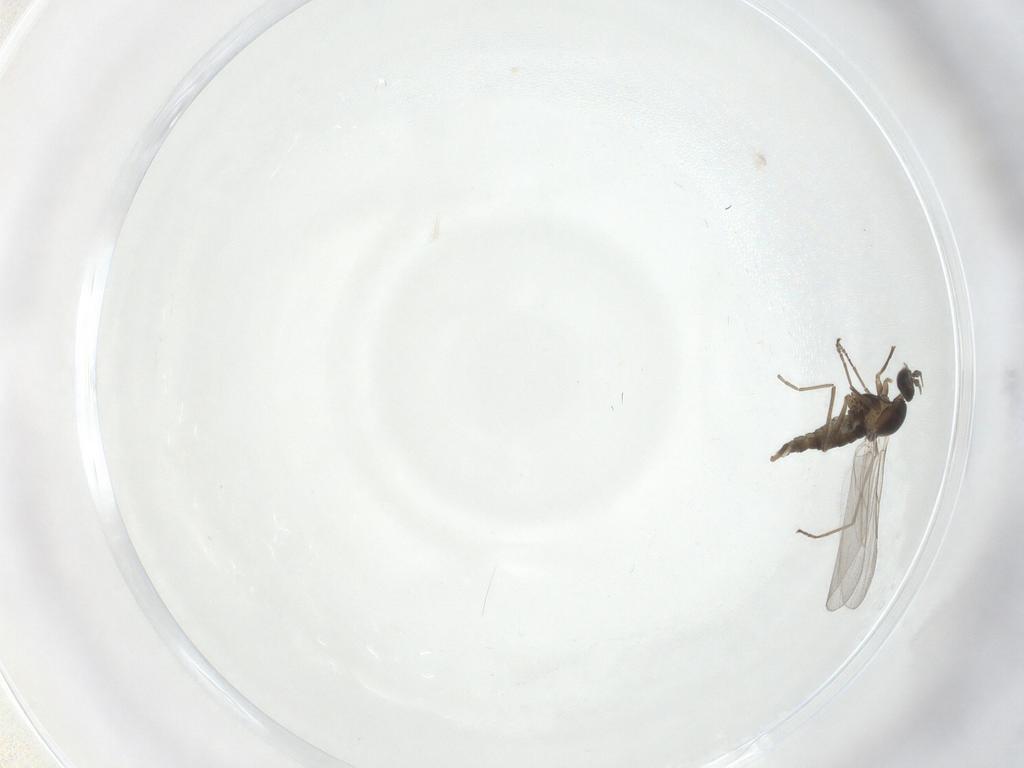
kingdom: Animalia
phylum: Arthropoda
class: Insecta
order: Diptera
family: Cecidomyiidae
